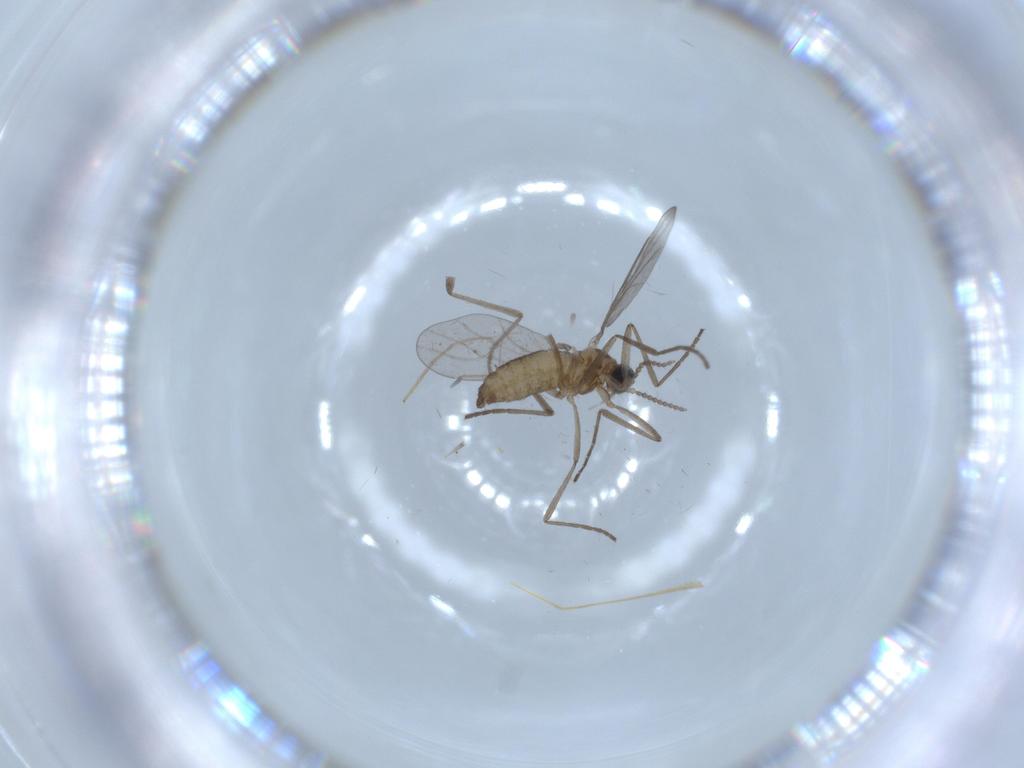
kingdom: Animalia
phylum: Arthropoda
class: Insecta
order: Diptera
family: Cecidomyiidae
